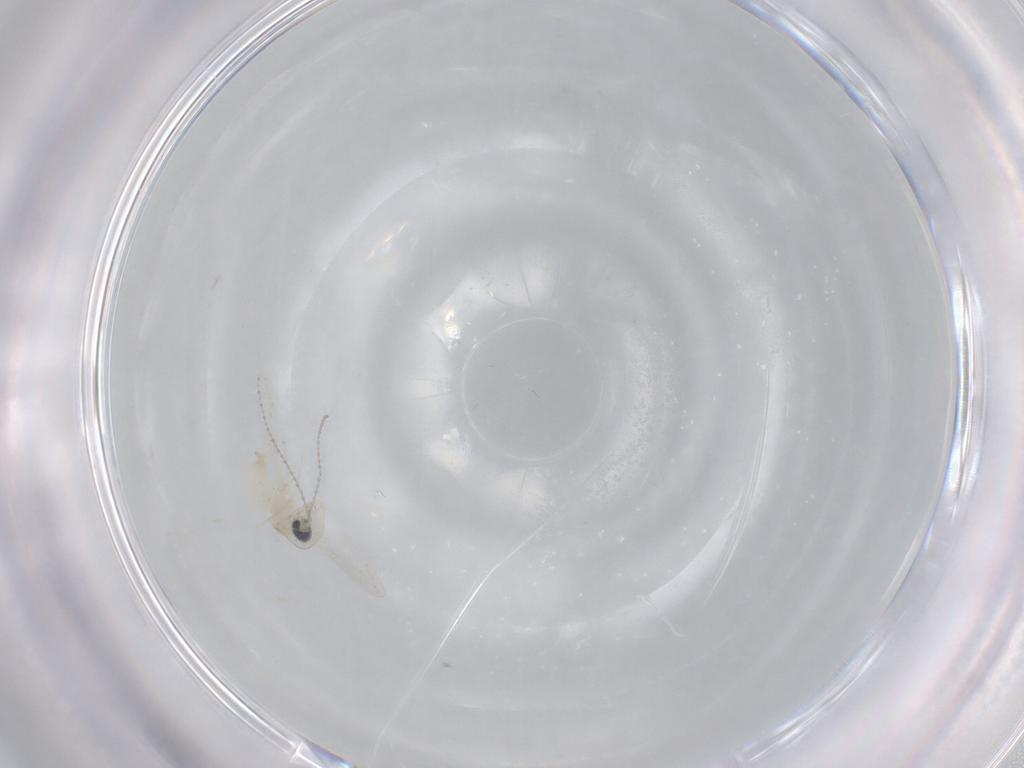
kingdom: Animalia
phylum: Arthropoda
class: Insecta
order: Diptera
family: Cecidomyiidae
